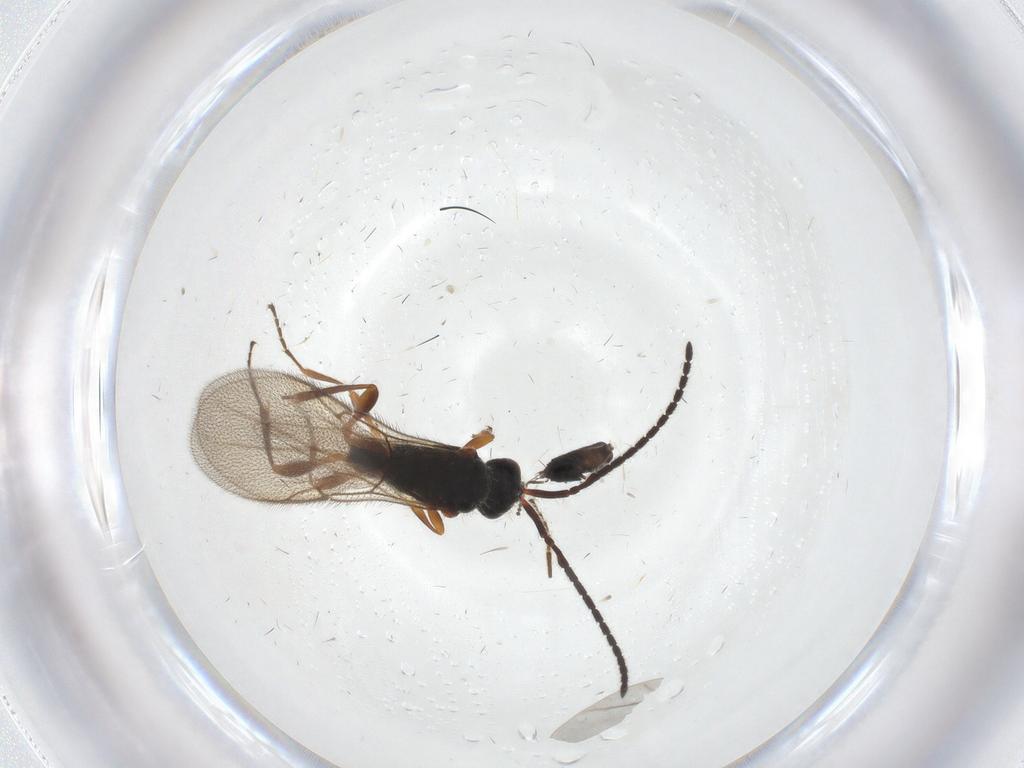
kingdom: Animalia
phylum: Arthropoda
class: Insecta
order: Hymenoptera
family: Eulophidae
